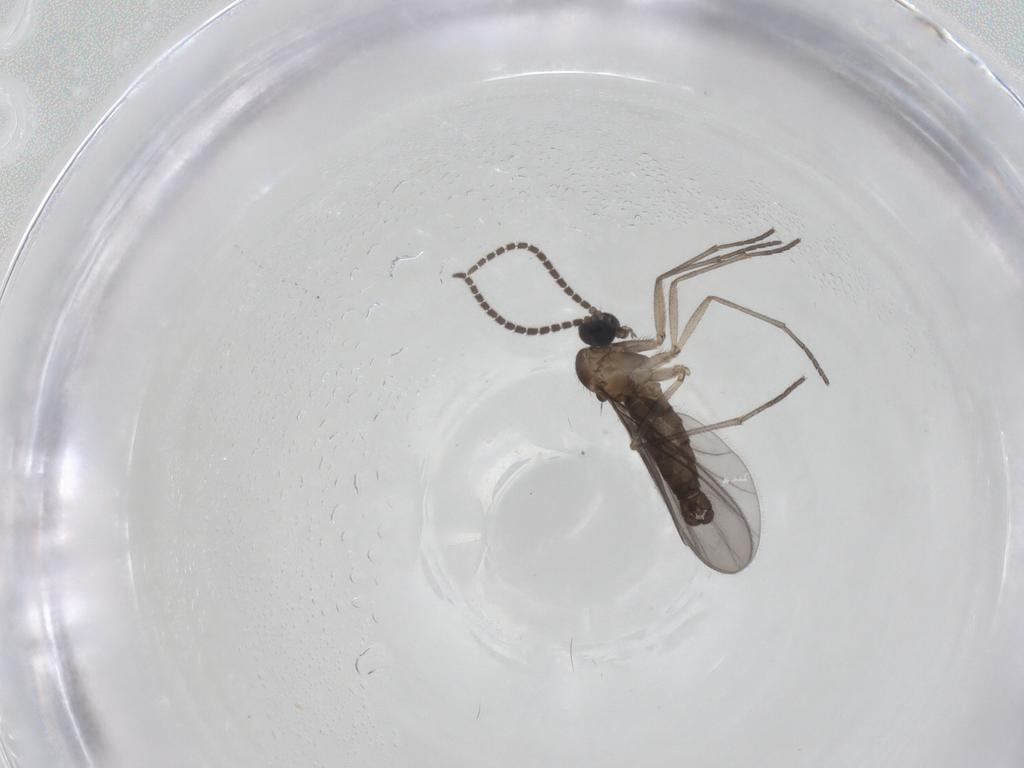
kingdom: Animalia
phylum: Arthropoda
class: Insecta
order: Diptera
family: Sciaridae
